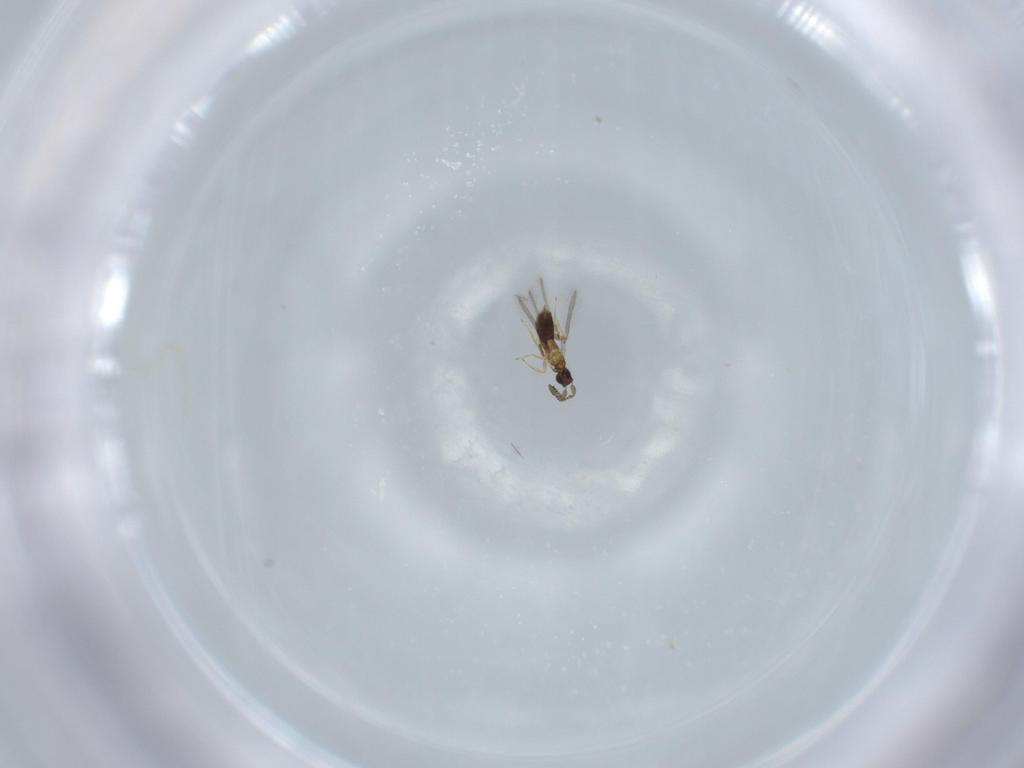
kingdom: Animalia
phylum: Arthropoda
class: Insecta
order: Hymenoptera
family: Mymaridae
